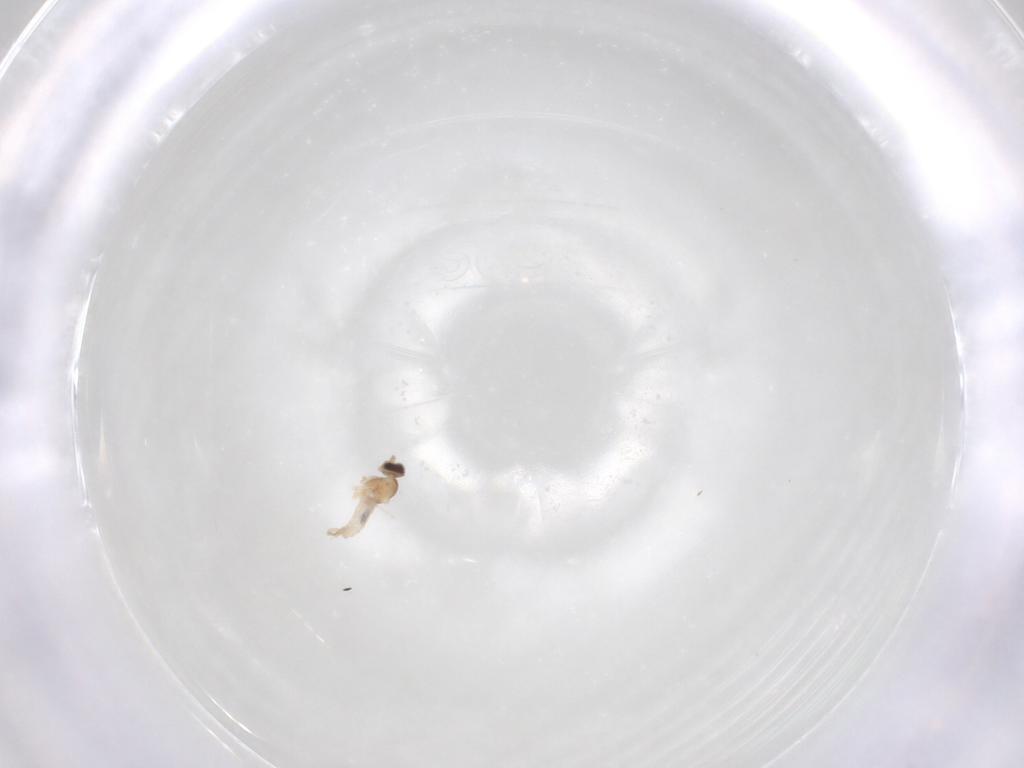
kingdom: Animalia
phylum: Arthropoda
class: Insecta
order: Diptera
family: Cecidomyiidae
